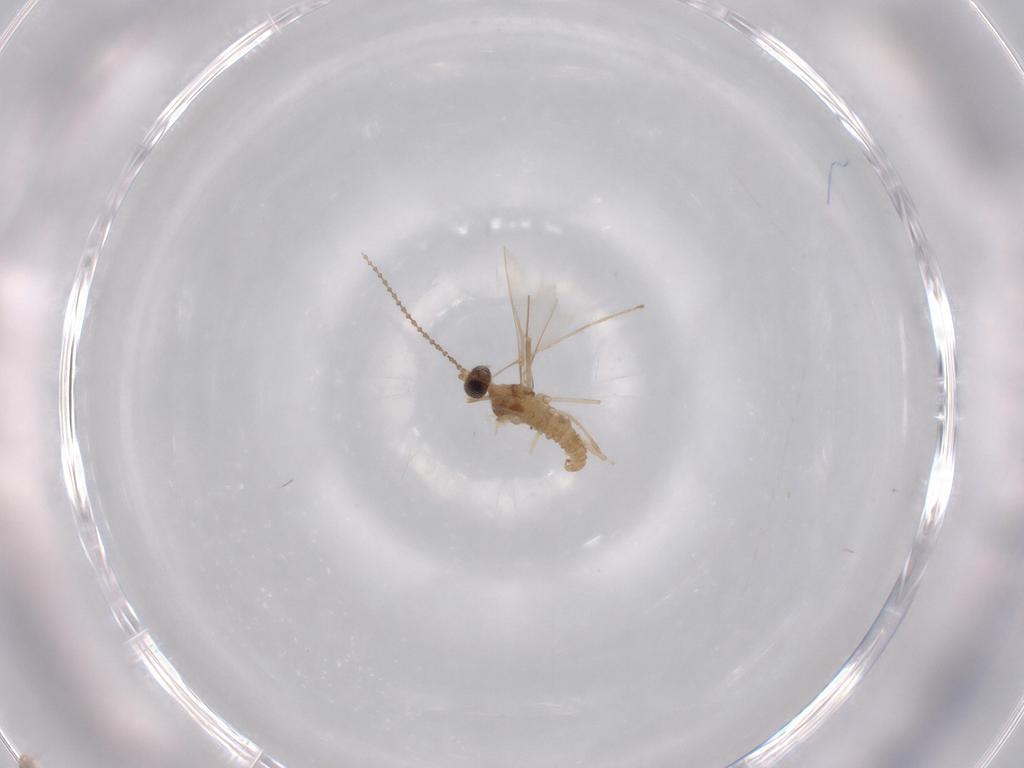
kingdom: Animalia
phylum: Arthropoda
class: Insecta
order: Diptera
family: Cecidomyiidae
